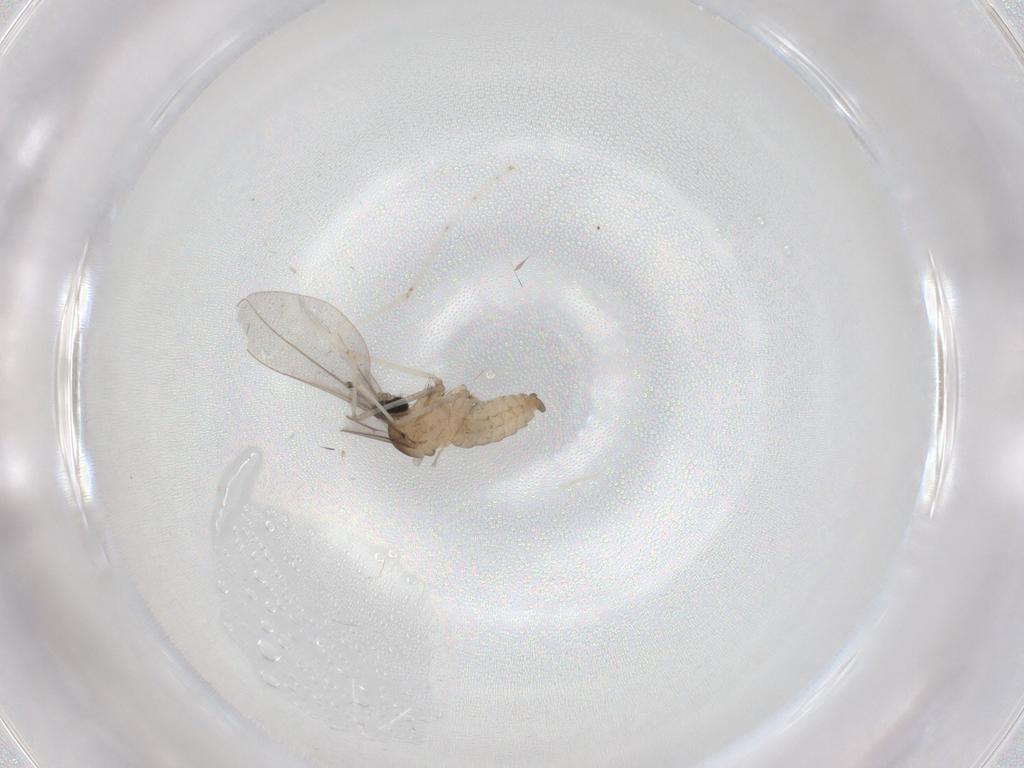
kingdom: Animalia
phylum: Arthropoda
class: Insecta
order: Diptera
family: Cecidomyiidae
